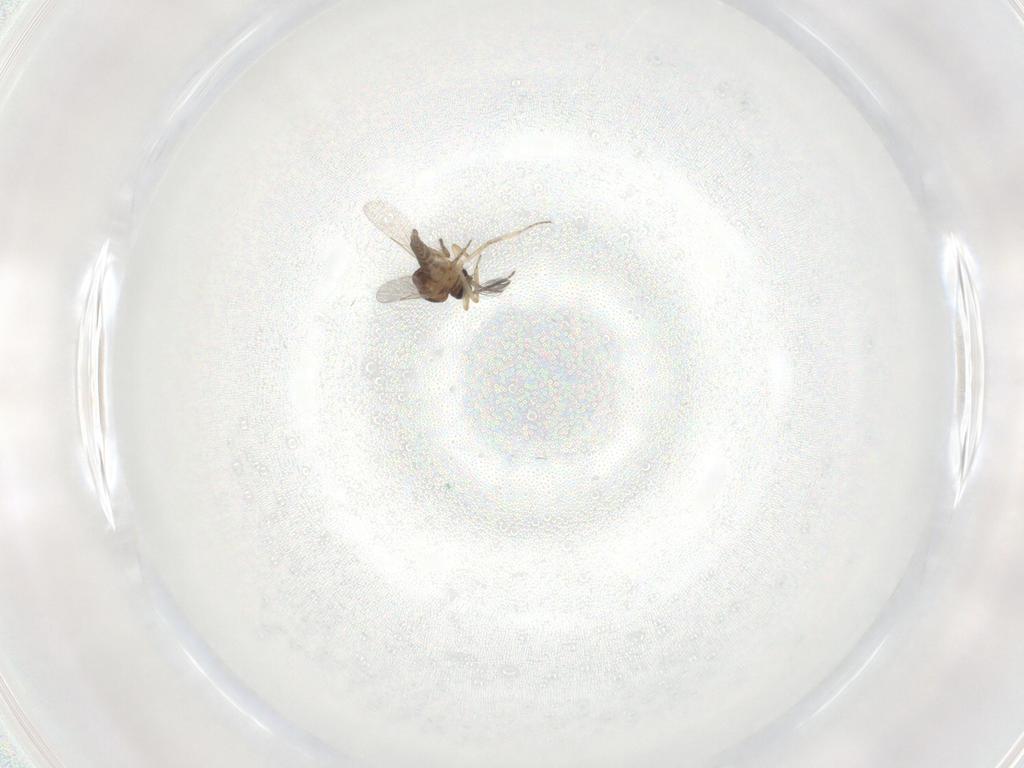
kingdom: Animalia
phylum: Arthropoda
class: Insecta
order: Diptera
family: Ceratopogonidae
